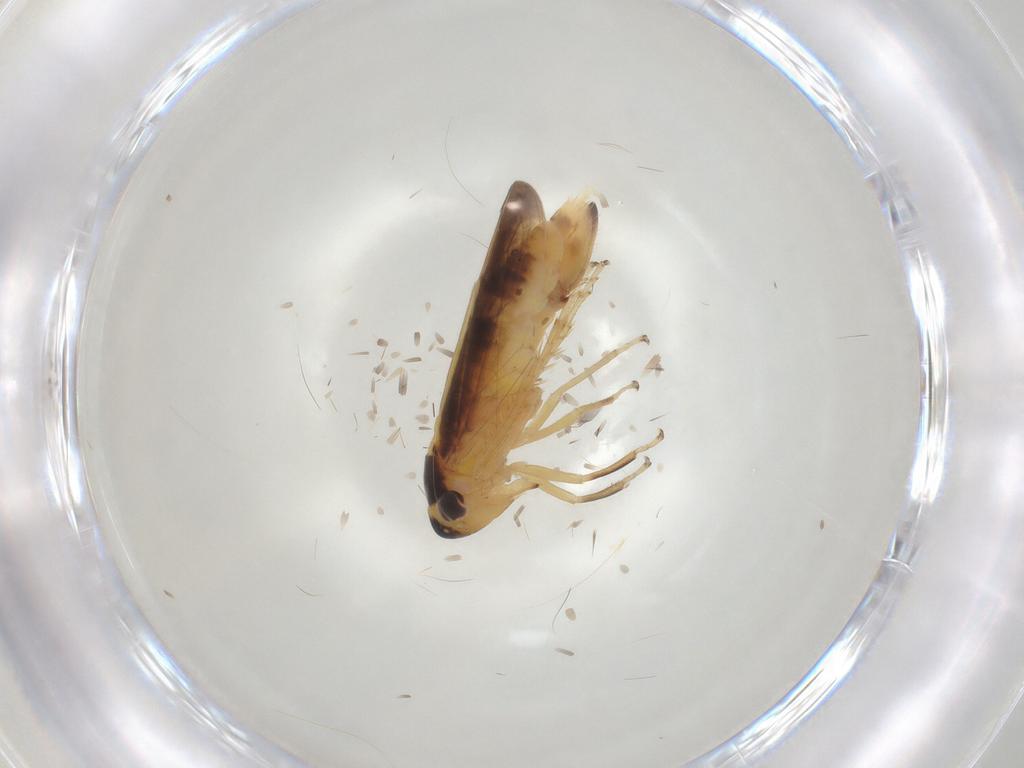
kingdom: Animalia
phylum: Arthropoda
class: Insecta
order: Hemiptera
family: Cicadellidae
